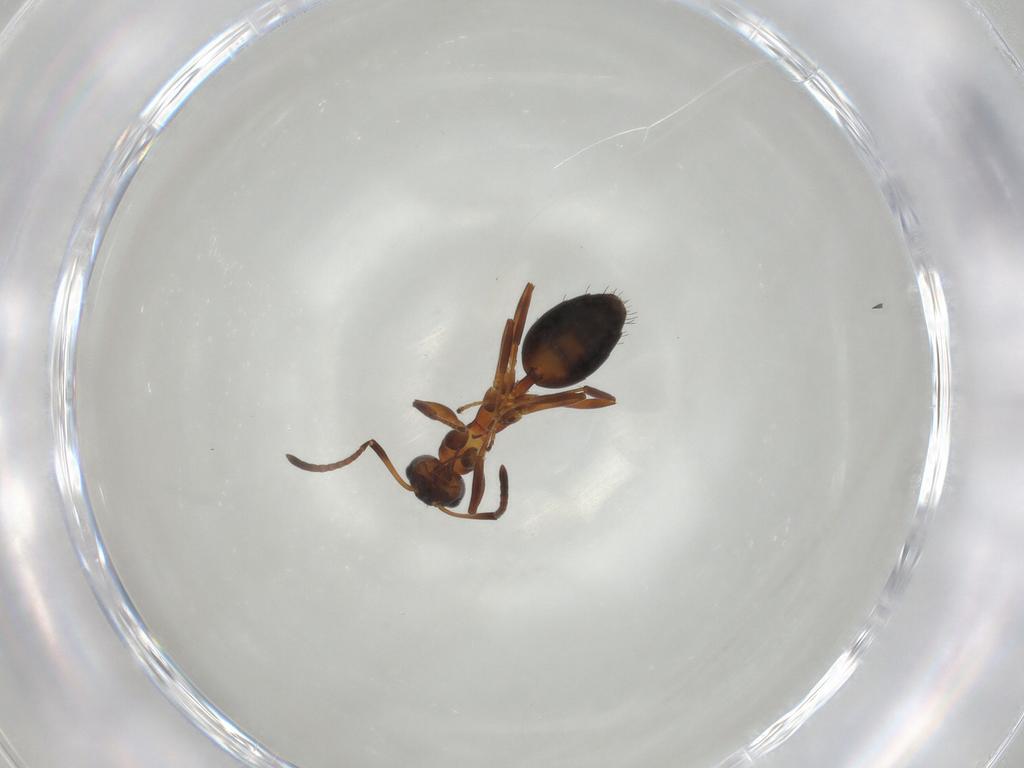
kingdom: Animalia
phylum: Arthropoda
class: Insecta
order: Hymenoptera
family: Formicidae
